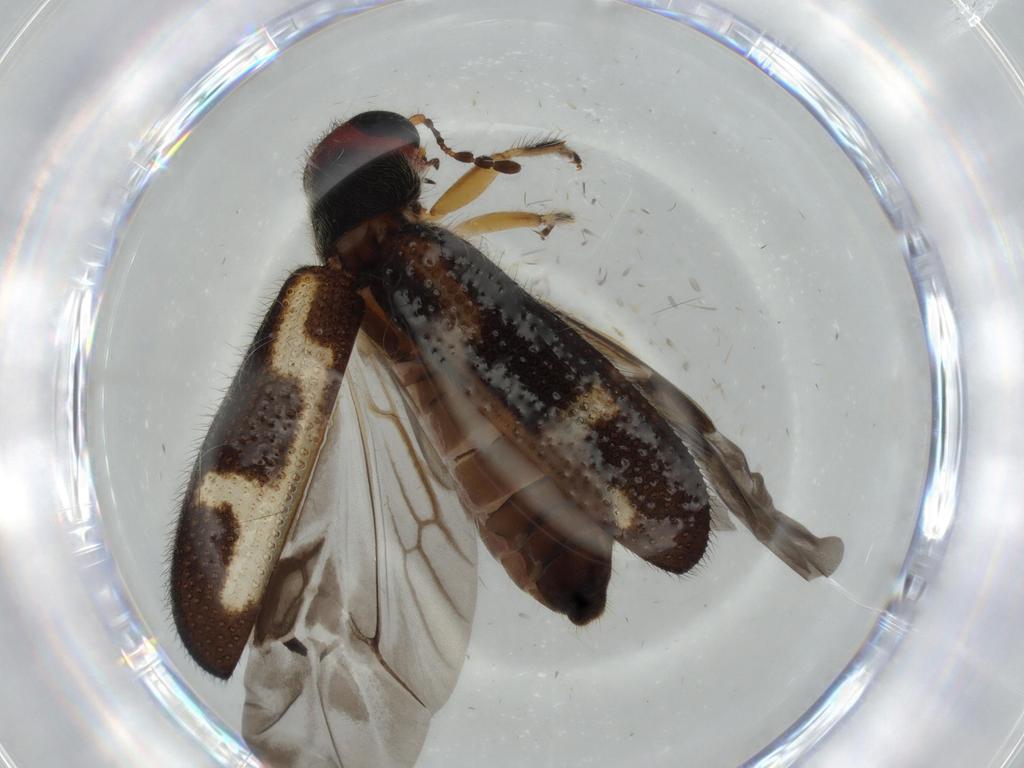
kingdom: Animalia
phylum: Arthropoda
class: Insecta
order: Coleoptera
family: Cleridae
